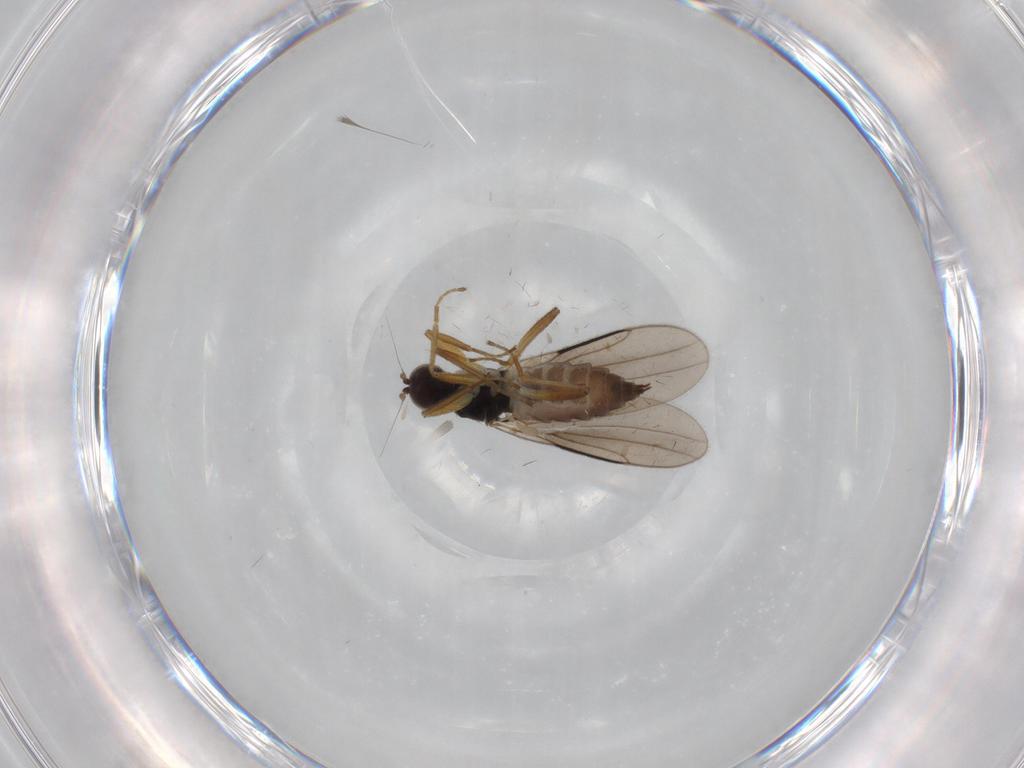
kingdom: Animalia
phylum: Arthropoda
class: Insecta
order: Diptera
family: Hybotidae
